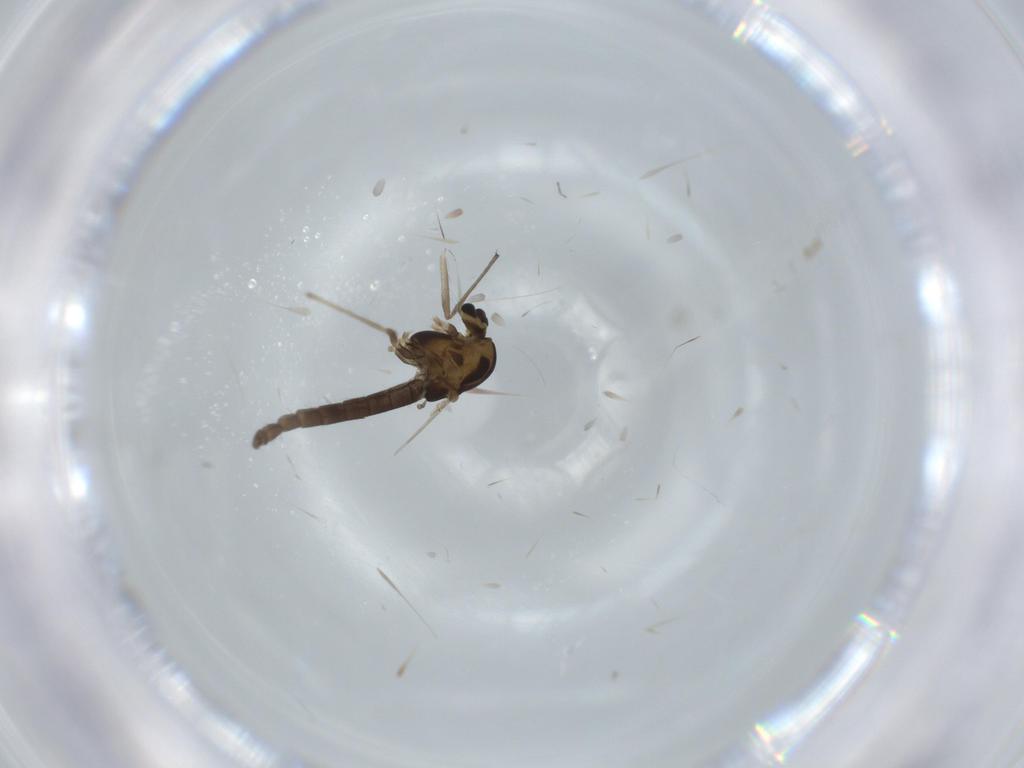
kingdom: Animalia
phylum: Arthropoda
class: Insecta
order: Diptera
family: Chironomidae
